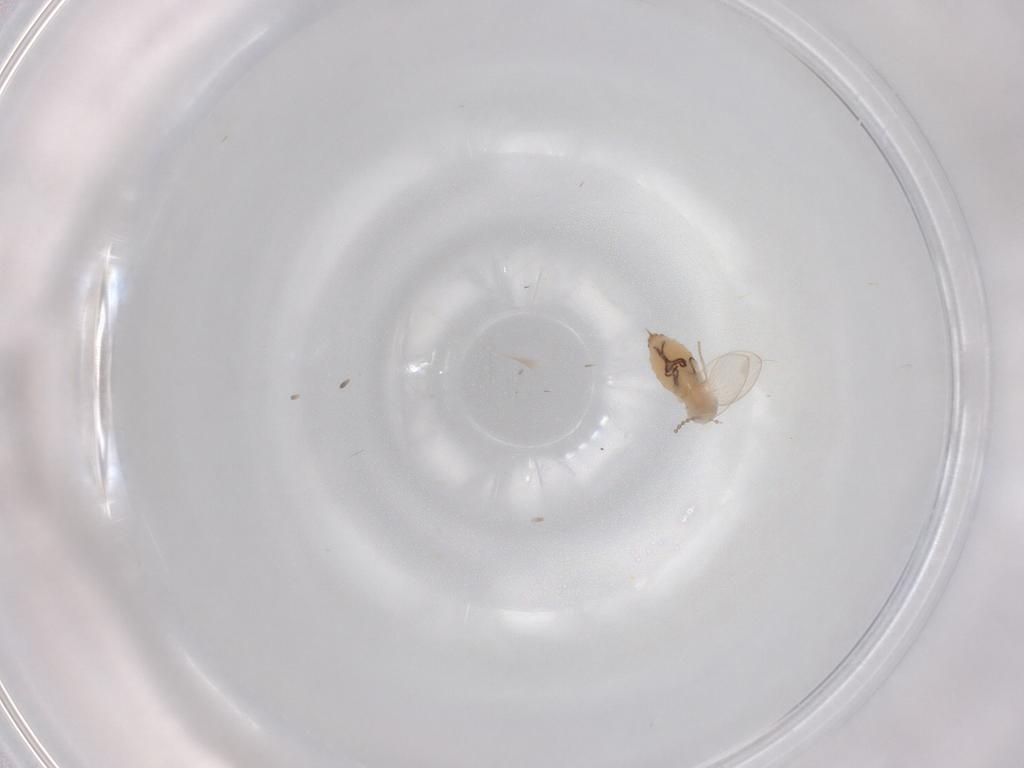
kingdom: Animalia
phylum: Arthropoda
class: Insecta
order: Diptera
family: Psychodidae
